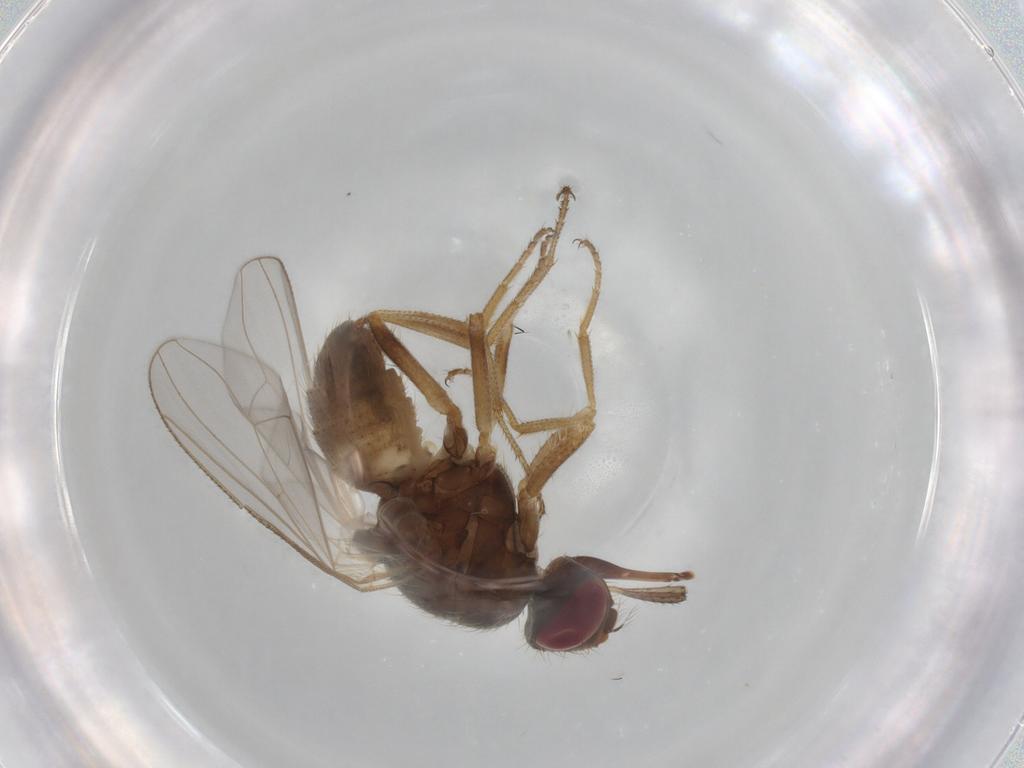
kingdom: Animalia
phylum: Arthropoda
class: Insecta
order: Diptera
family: Muscidae
